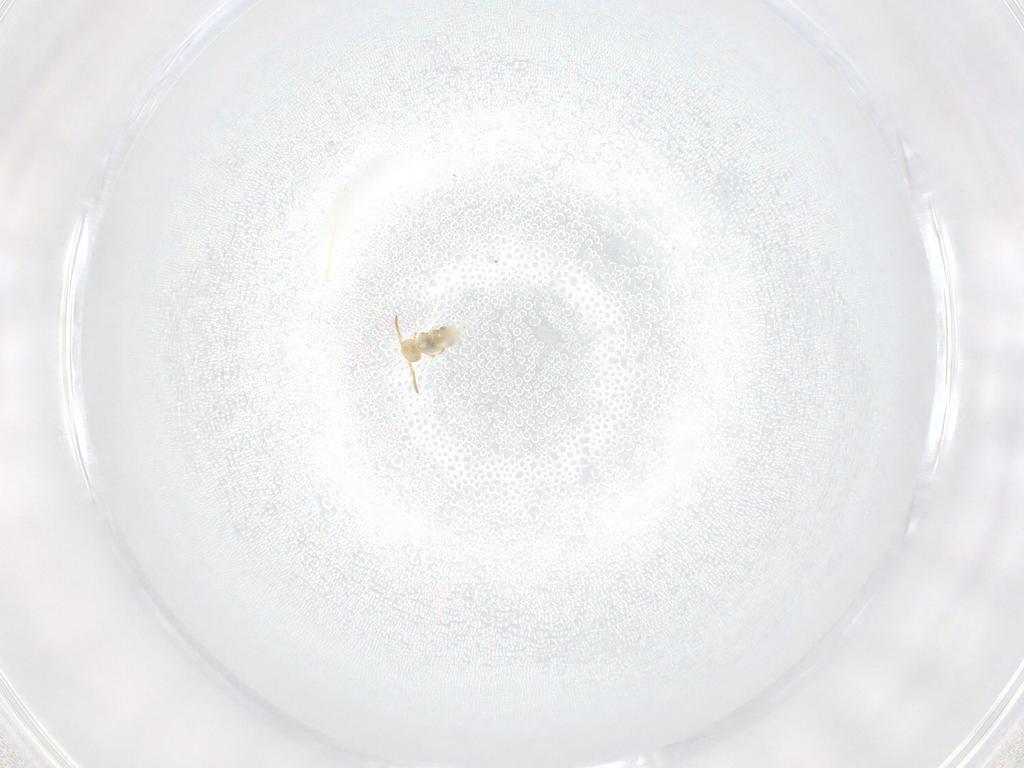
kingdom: Animalia
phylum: Arthropoda
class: Collembola
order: Symphypleona
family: Bourletiellidae
